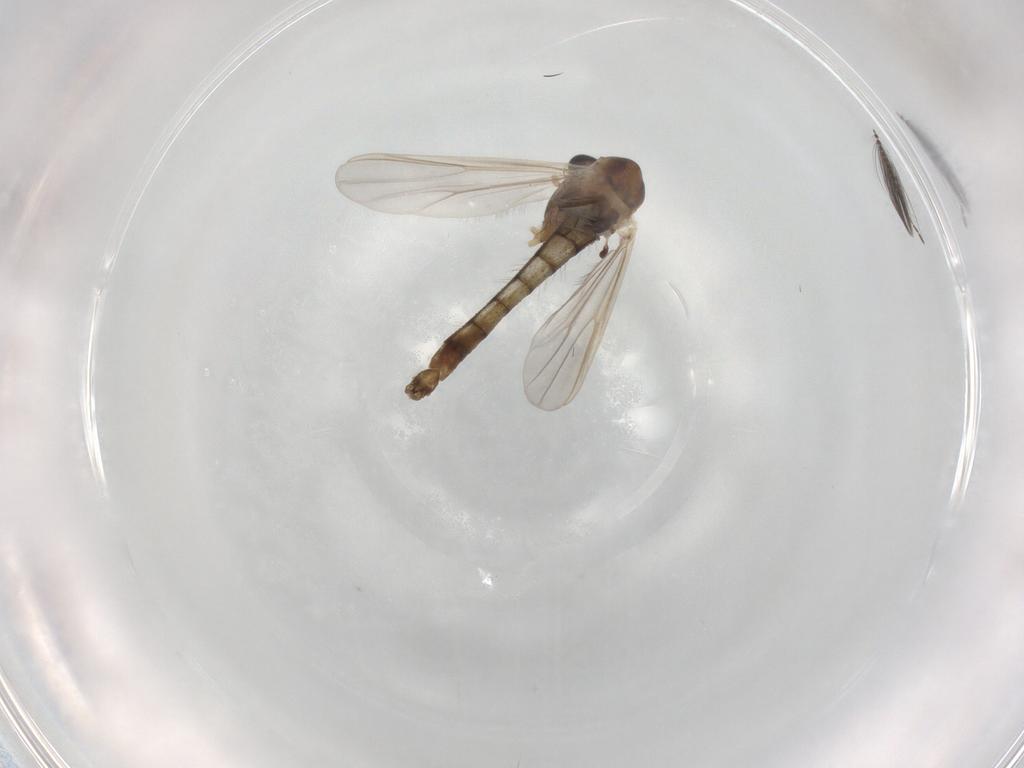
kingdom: Animalia
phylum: Arthropoda
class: Insecta
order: Diptera
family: Chironomidae
